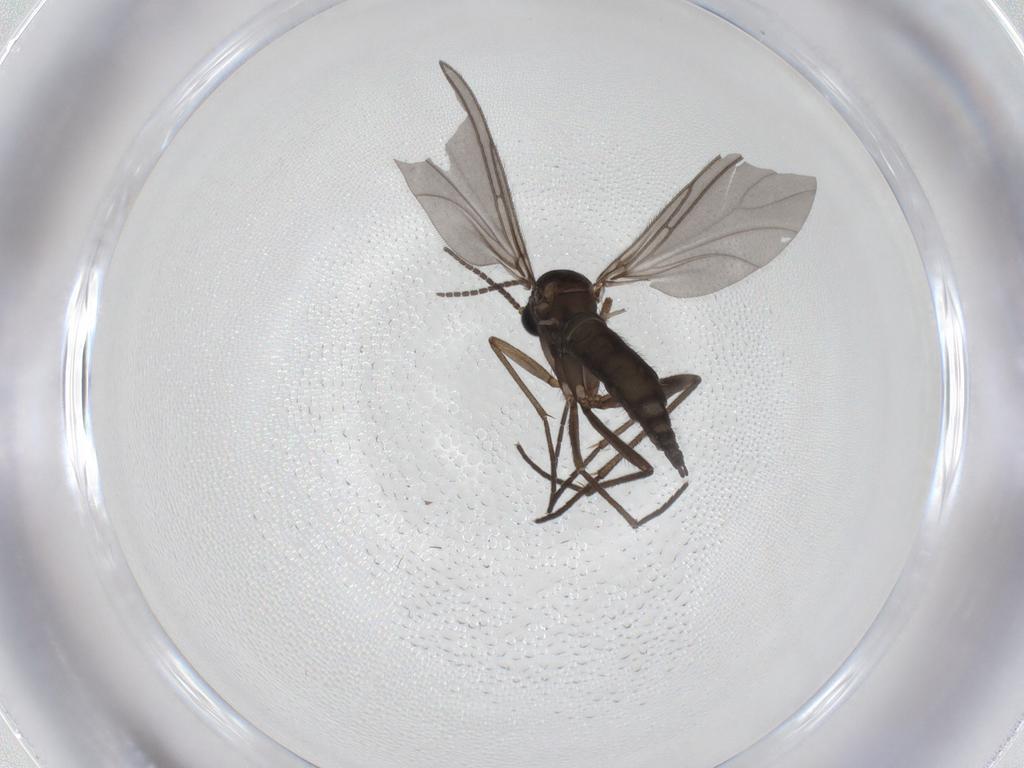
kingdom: Animalia
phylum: Arthropoda
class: Insecta
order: Diptera
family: Sciaridae
